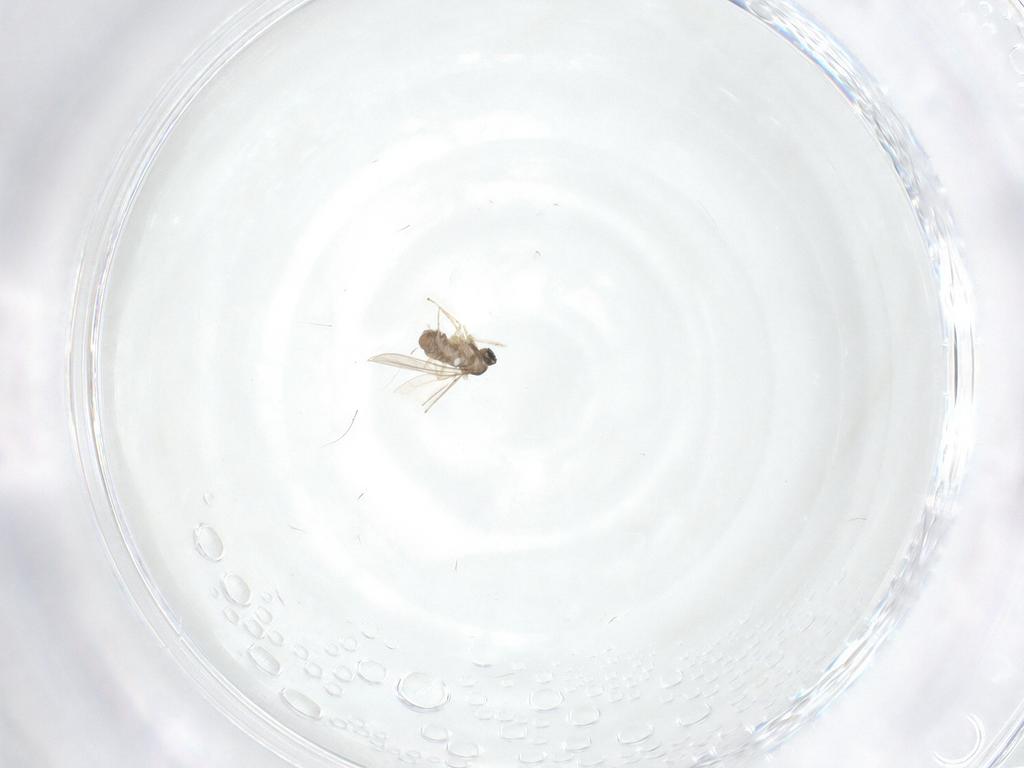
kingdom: Animalia
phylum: Arthropoda
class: Insecta
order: Diptera
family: Cecidomyiidae
